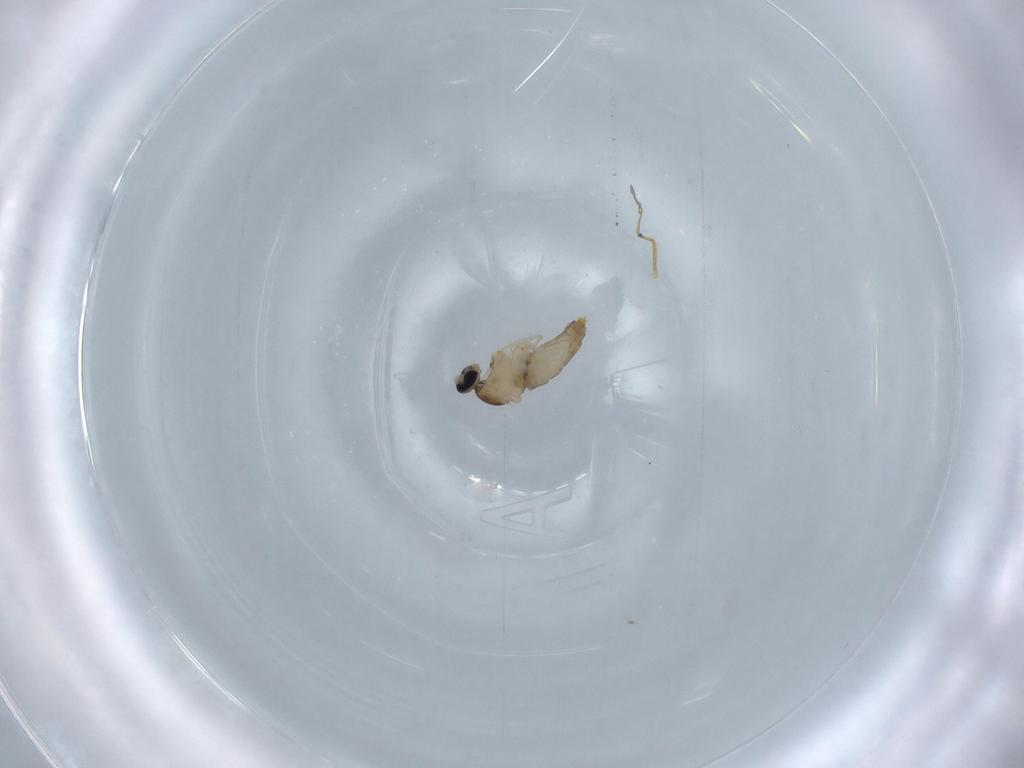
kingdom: Animalia
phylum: Arthropoda
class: Insecta
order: Diptera
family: Cecidomyiidae
